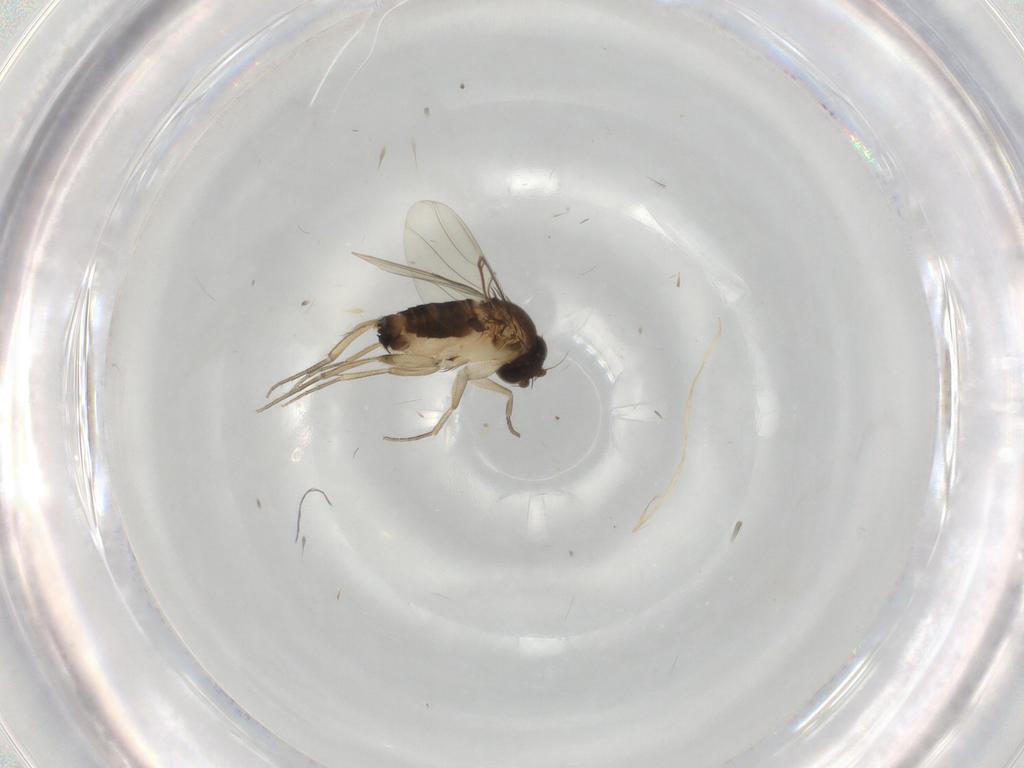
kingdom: Animalia
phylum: Arthropoda
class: Insecta
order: Diptera
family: Phoridae
